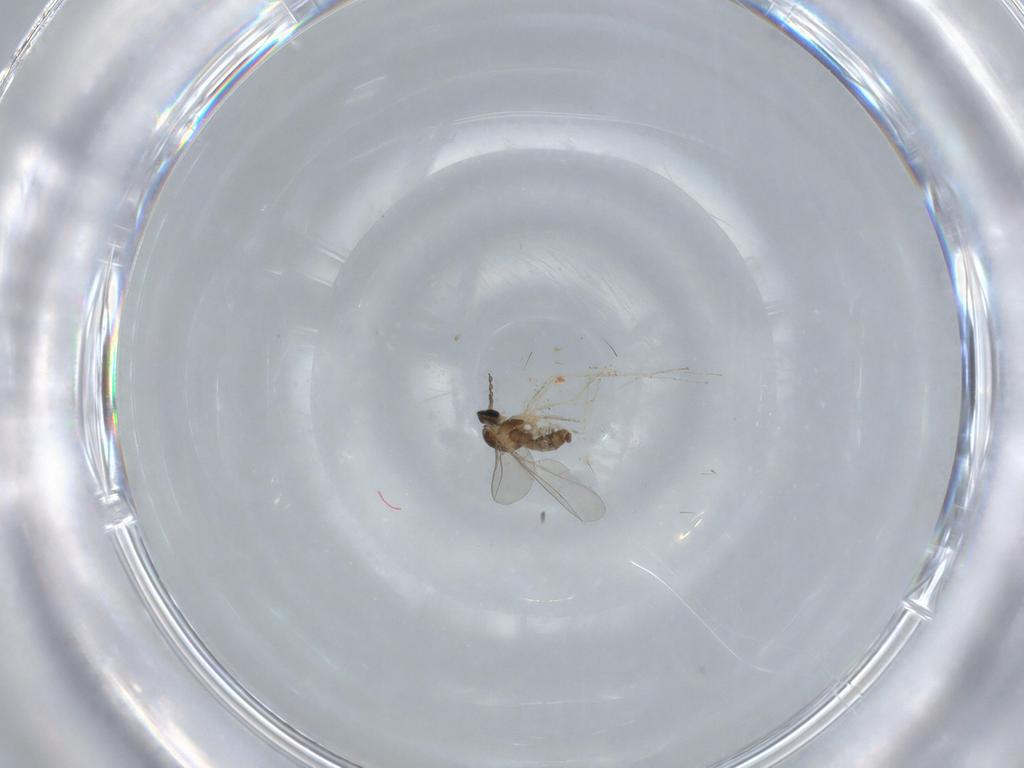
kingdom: Animalia
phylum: Arthropoda
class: Insecta
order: Diptera
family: Cecidomyiidae
